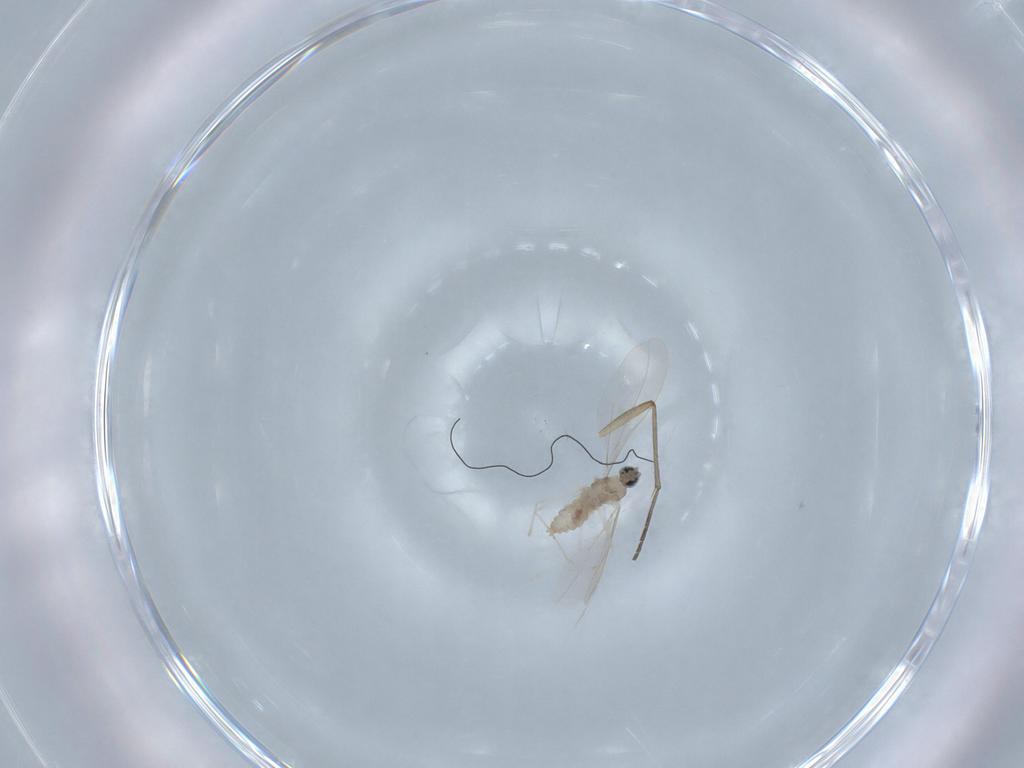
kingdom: Animalia
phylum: Arthropoda
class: Insecta
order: Diptera
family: Cecidomyiidae
